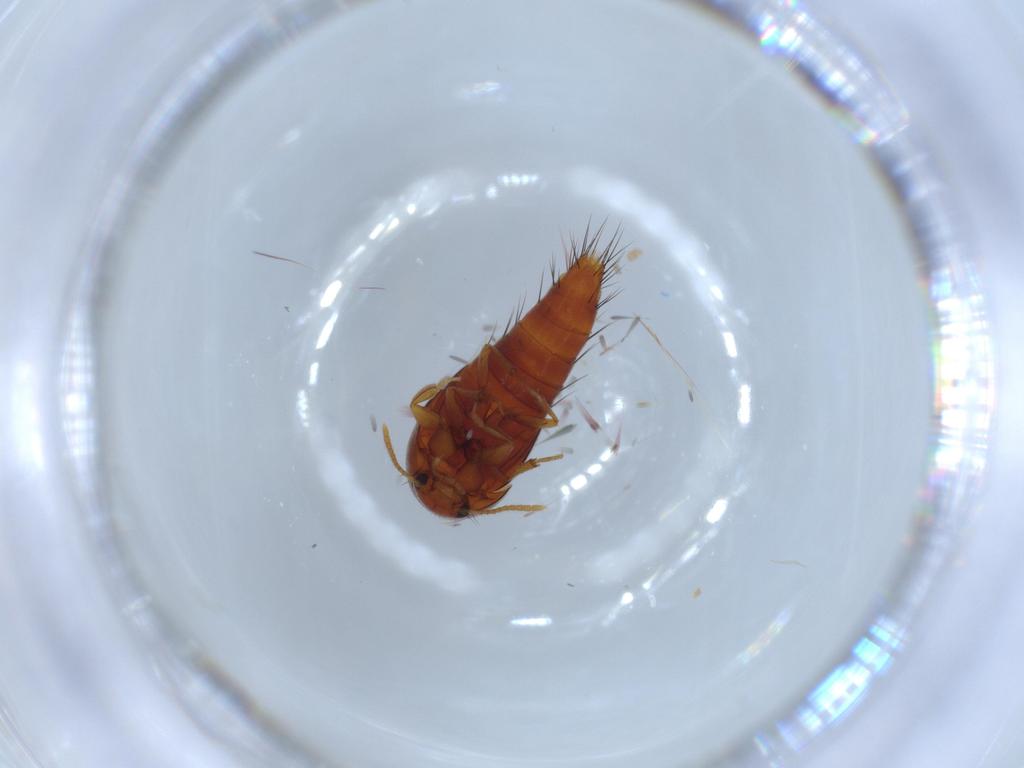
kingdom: Animalia
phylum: Arthropoda
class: Insecta
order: Coleoptera
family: Staphylinidae
